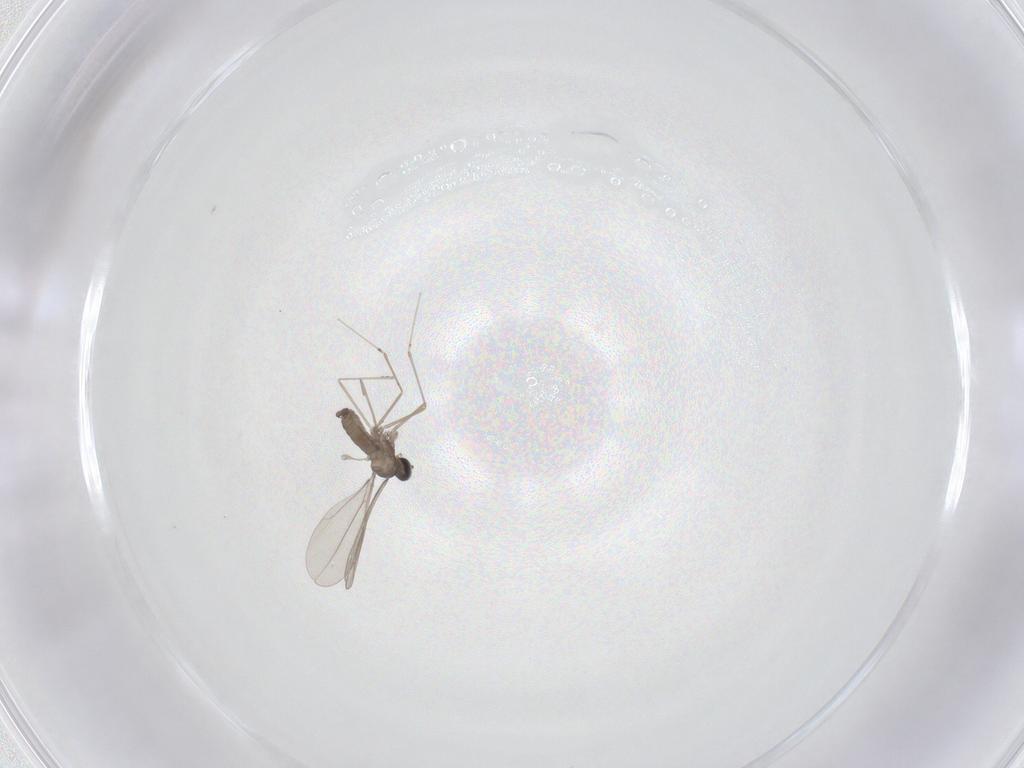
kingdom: Animalia
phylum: Arthropoda
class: Insecta
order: Diptera
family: Cecidomyiidae
